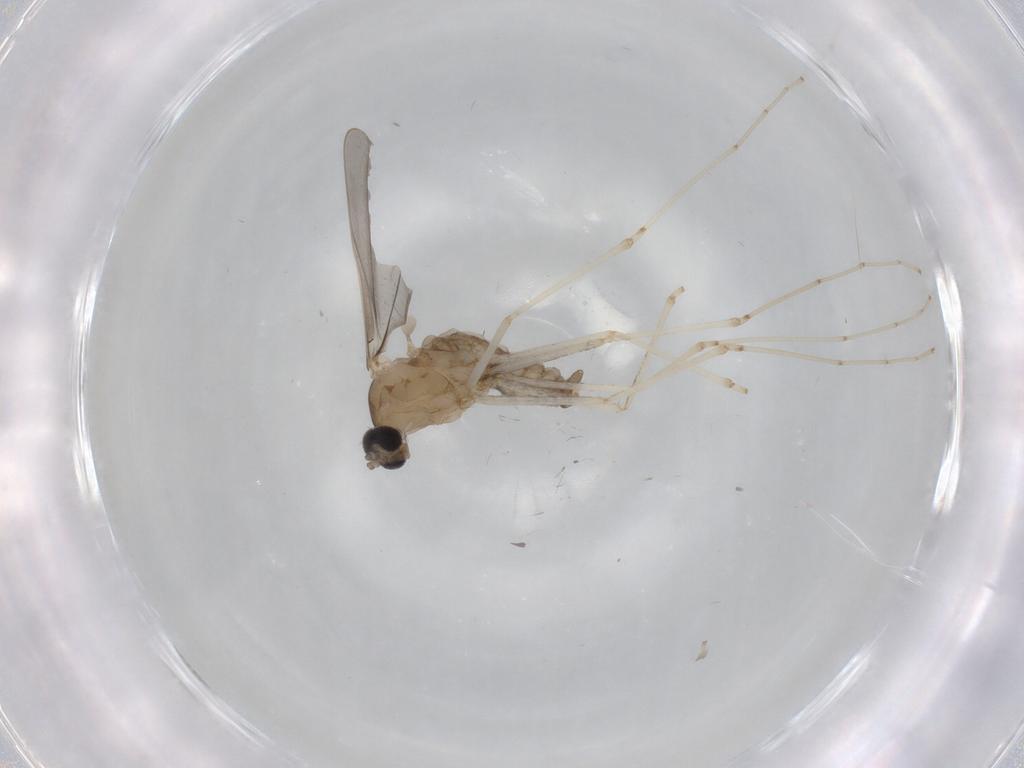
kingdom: Animalia
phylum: Arthropoda
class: Insecta
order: Diptera
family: Cecidomyiidae
